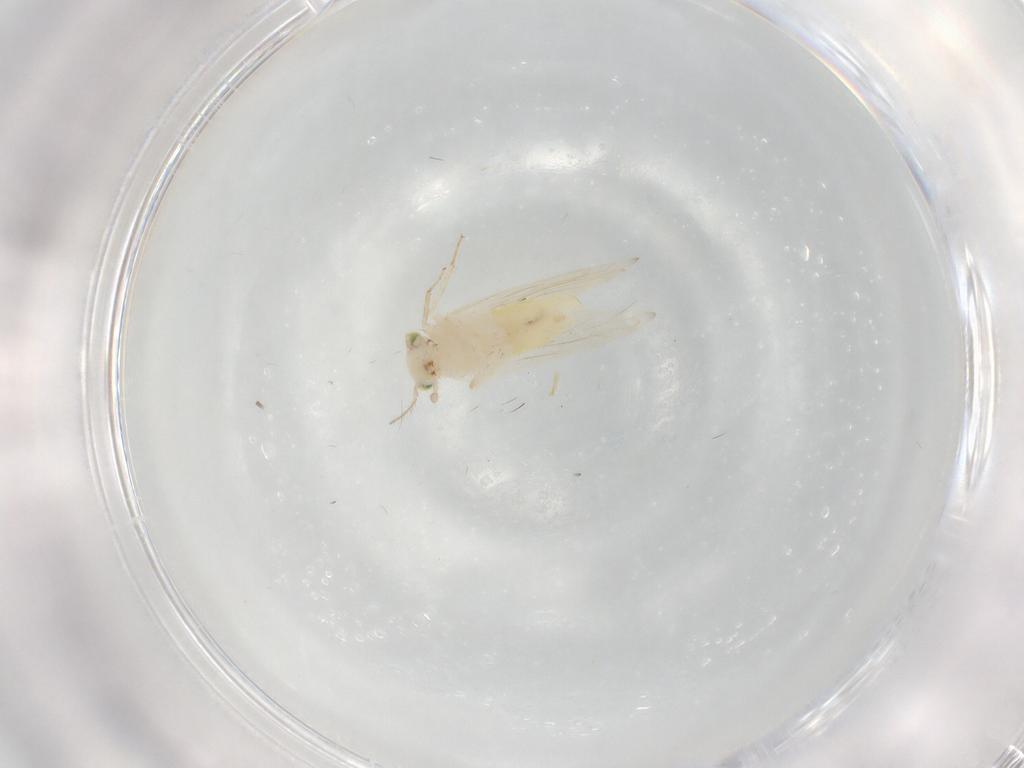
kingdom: Animalia
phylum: Arthropoda
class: Insecta
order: Psocodea
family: Lepidopsocidae
